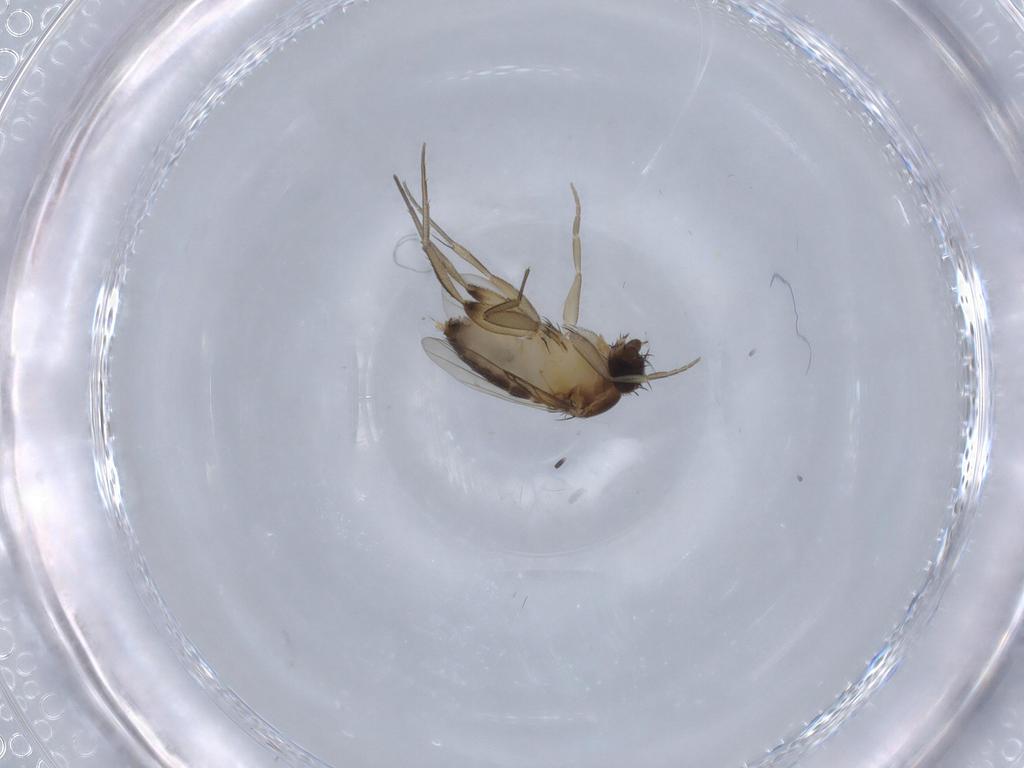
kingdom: Animalia
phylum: Arthropoda
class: Insecta
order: Diptera
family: Phoridae
